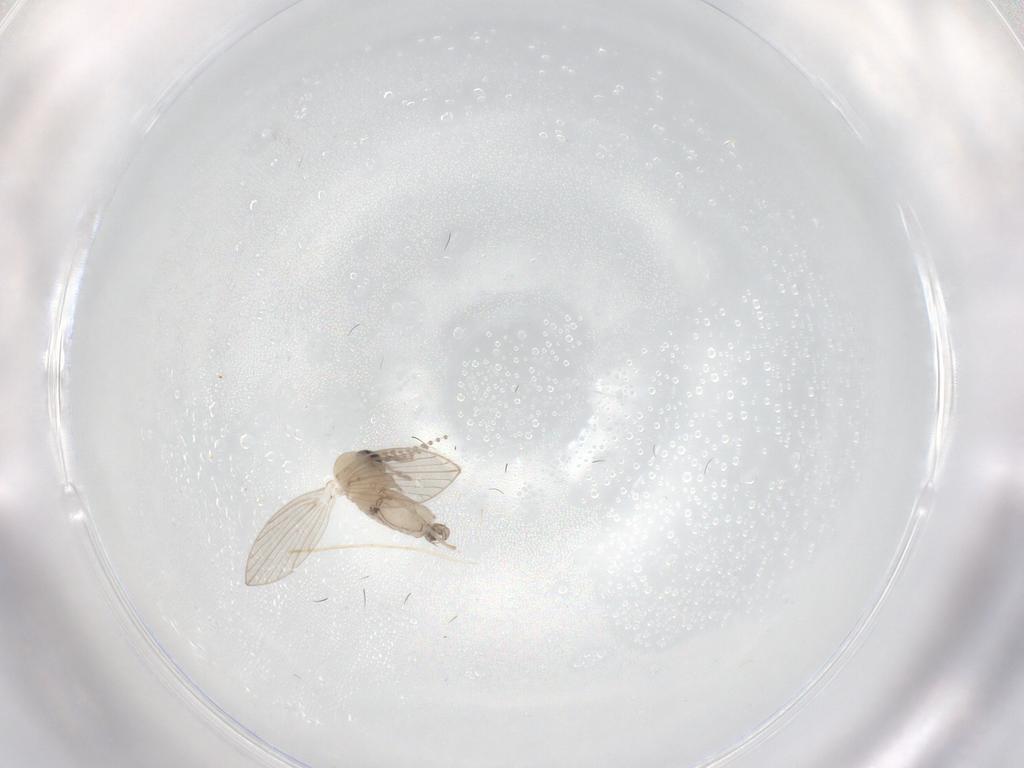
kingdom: Animalia
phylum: Arthropoda
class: Insecta
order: Diptera
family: Psychodidae
